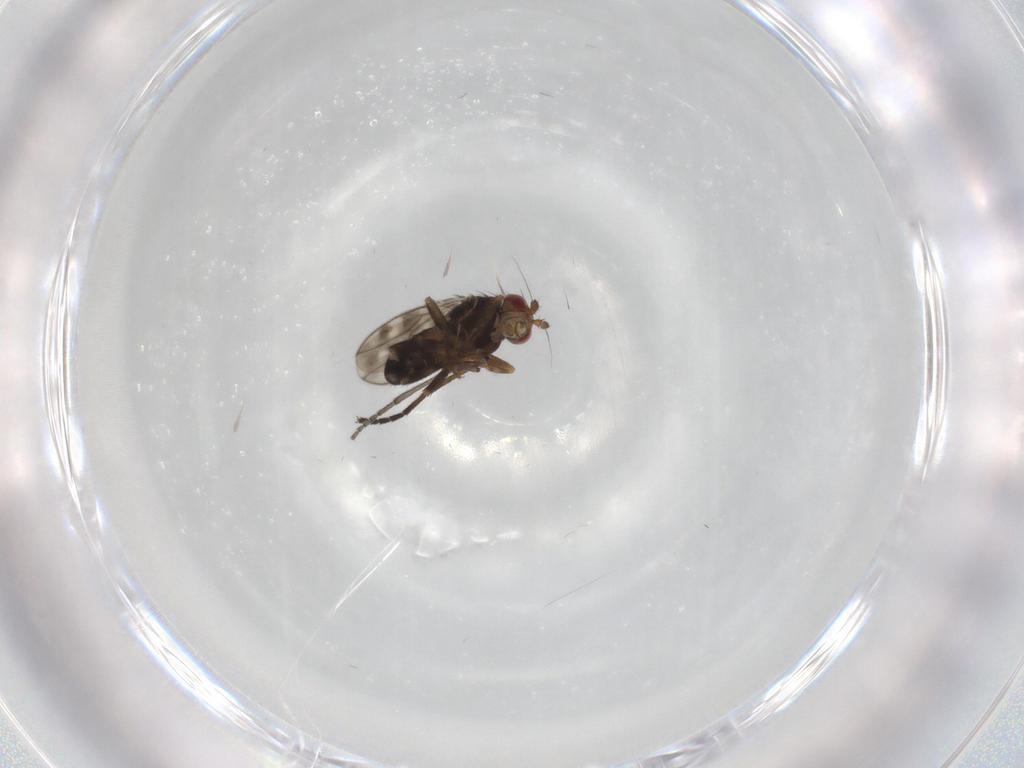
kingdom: Animalia
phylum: Arthropoda
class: Insecta
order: Diptera
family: Sphaeroceridae
